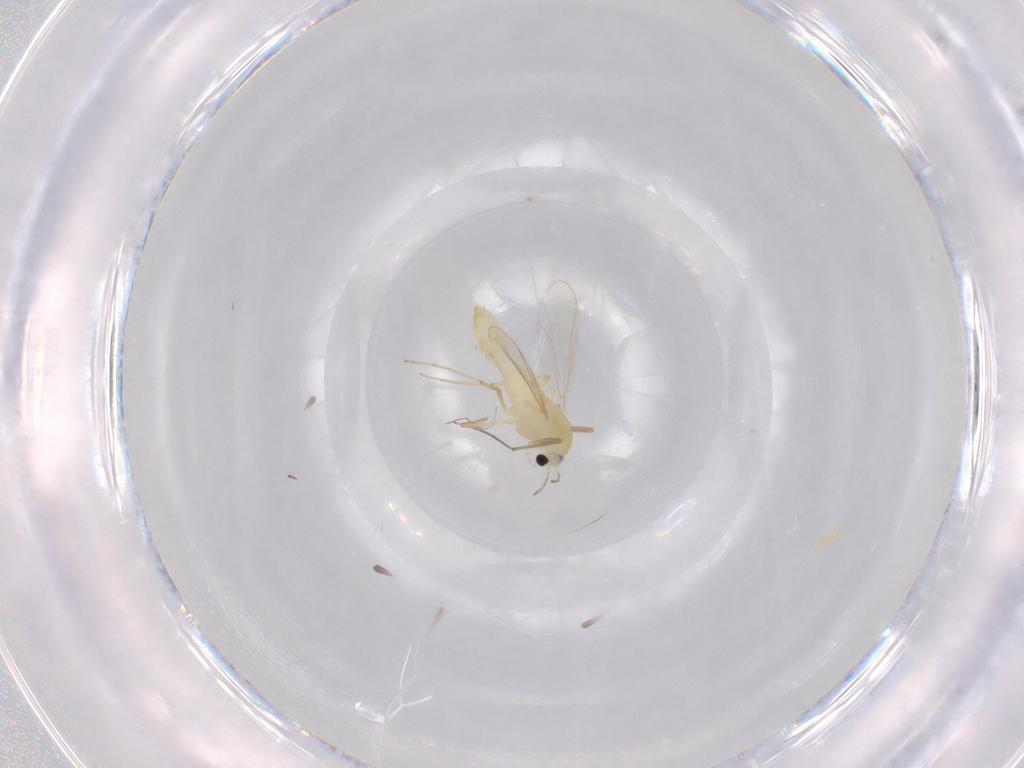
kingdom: Animalia
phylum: Arthropoda
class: Insecta
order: Diptera
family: Chironomidae
